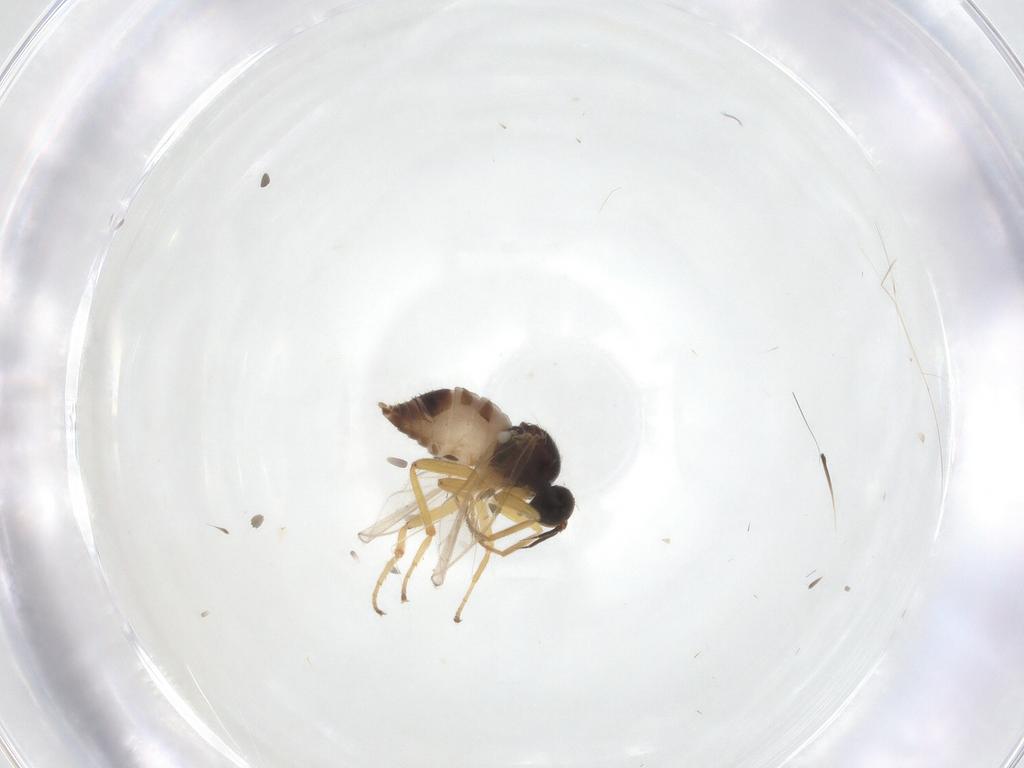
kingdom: Animalia
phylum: Arthropoda
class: Insecta
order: Diptera
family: Hybotidae
